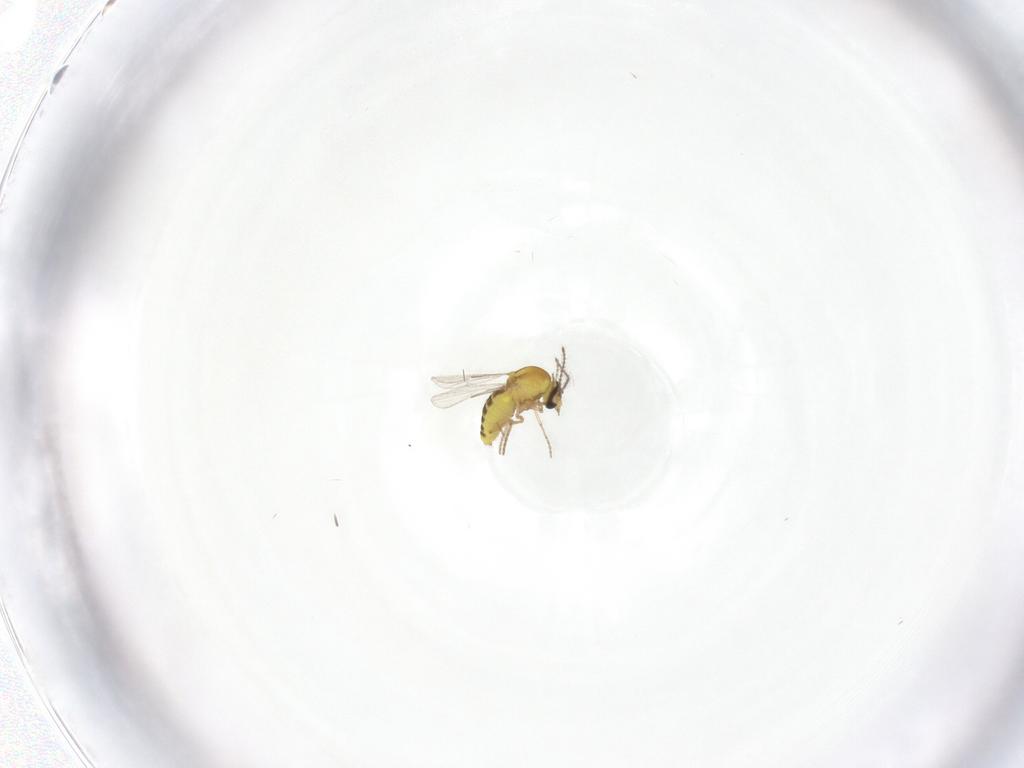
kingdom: Animalia
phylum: Arthropoda
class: Insecta
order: Diptera
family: Ceratopogonidae
